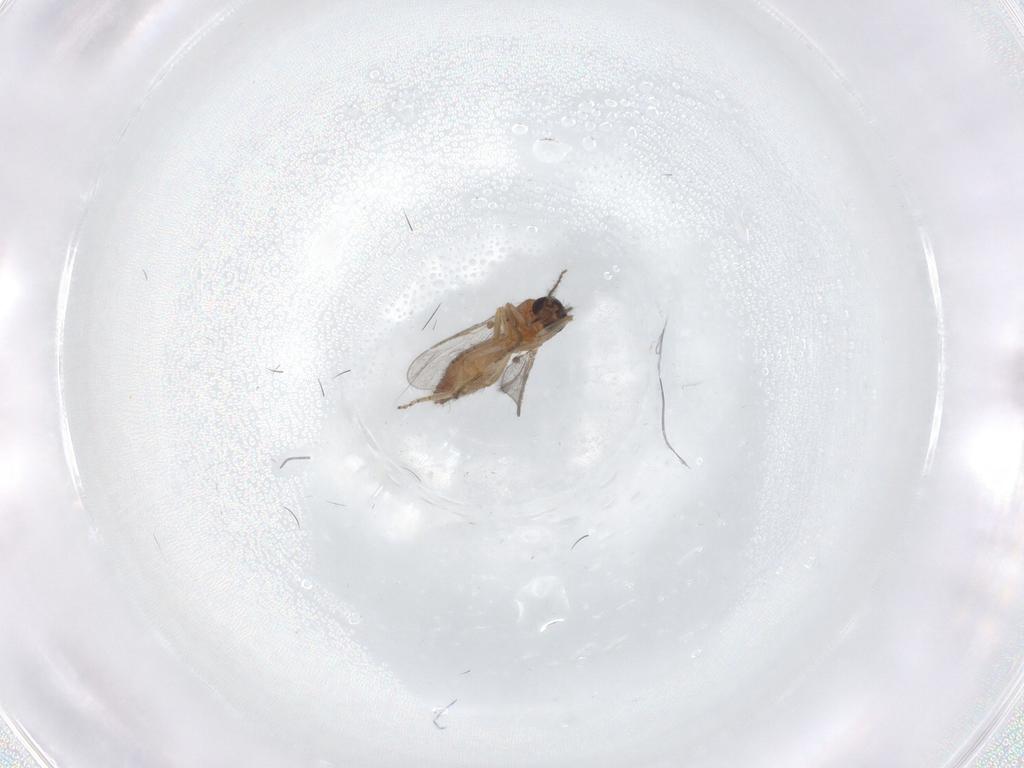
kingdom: Animalia
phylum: Arthropoda
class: Insecta
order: Diptera
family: Ceratopogonidae
